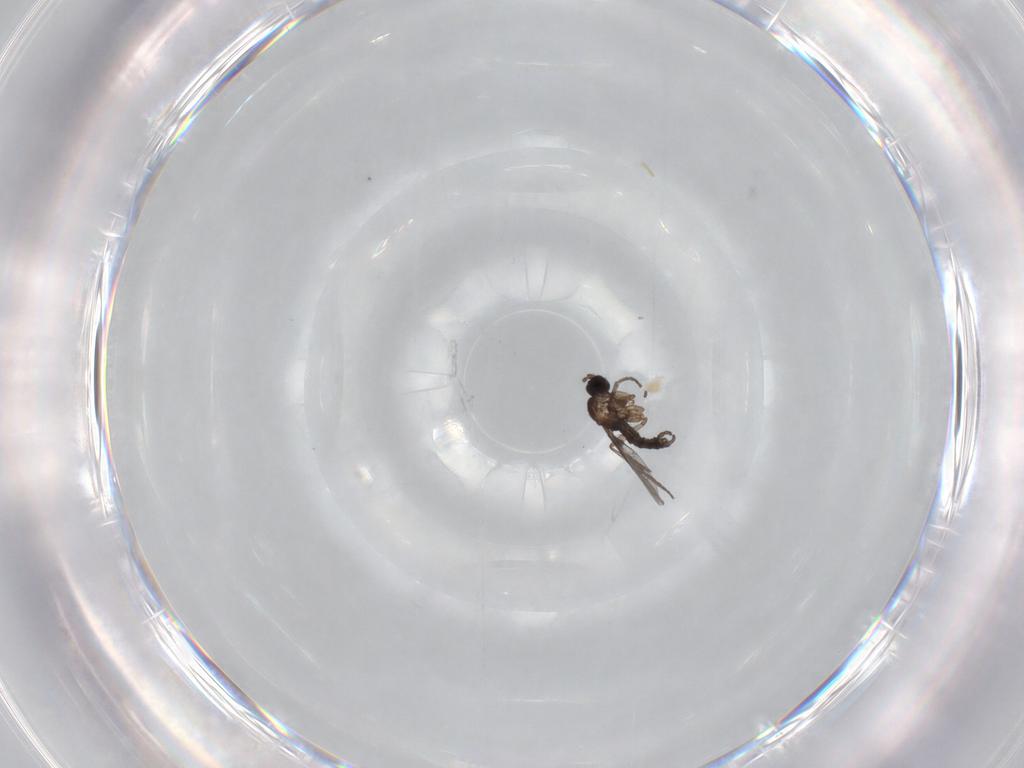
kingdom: Animalia
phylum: Arthropoda
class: Insecta
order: Diptera
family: Sciaridae
